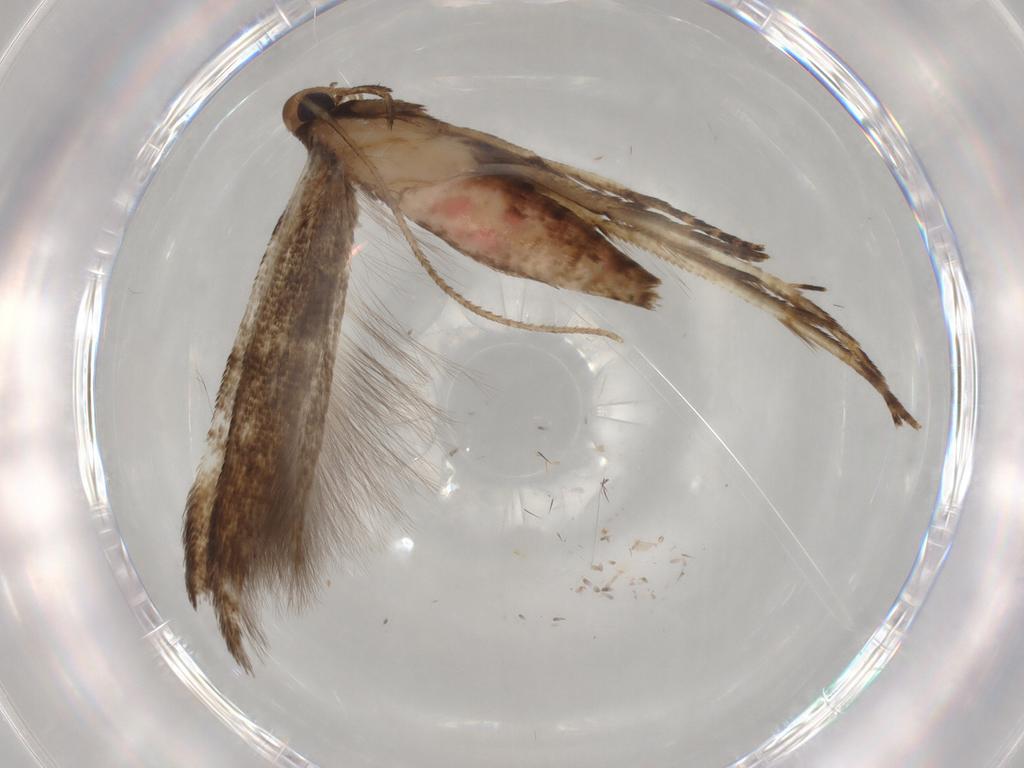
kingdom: Animalia
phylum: Arthropoda
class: Insecta
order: Lepidoptera
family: Cosmopterigidae
